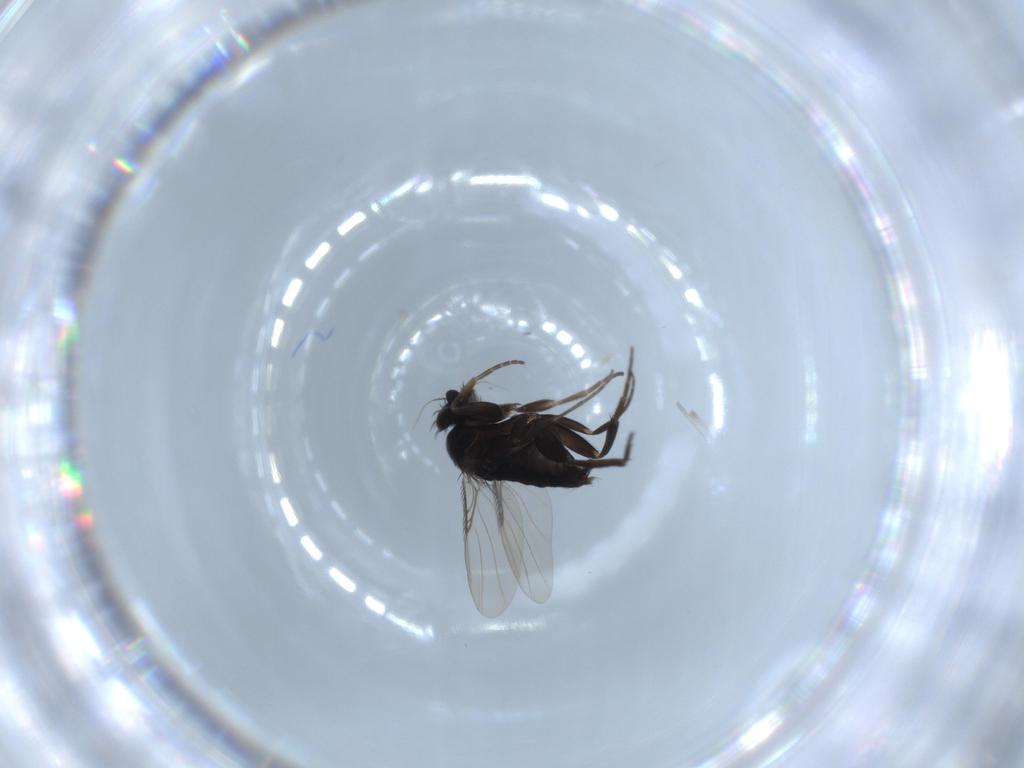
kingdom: Animalia
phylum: Arthropoda
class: Insecta
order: Diptera
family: Phoridae
